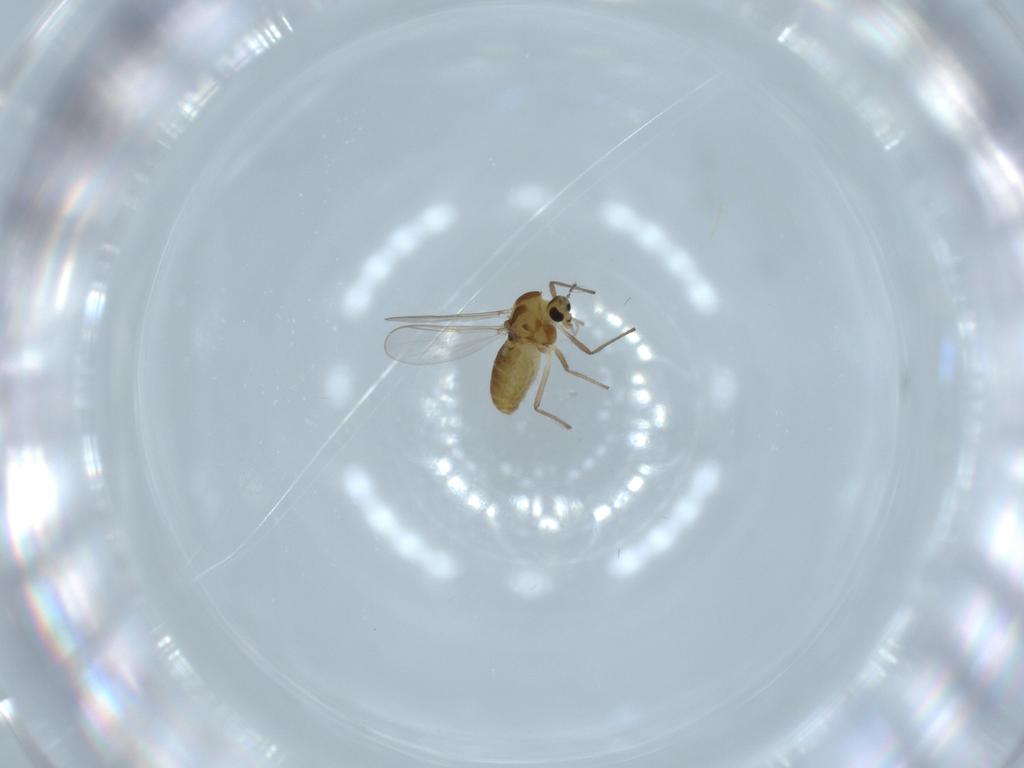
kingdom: Animalia
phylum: Arthropoda
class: Insecta
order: Diptera
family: Chironomidae
